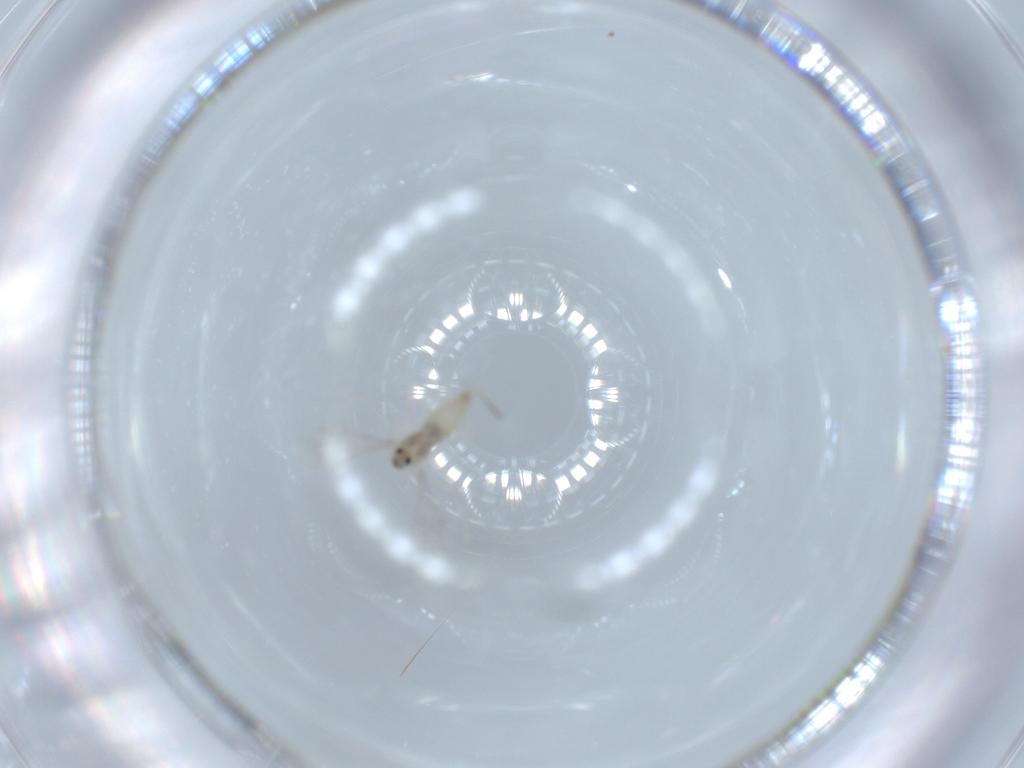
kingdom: Animalia
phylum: Arthropoda
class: Insecta
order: Diptera
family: Cecidomyiidae
